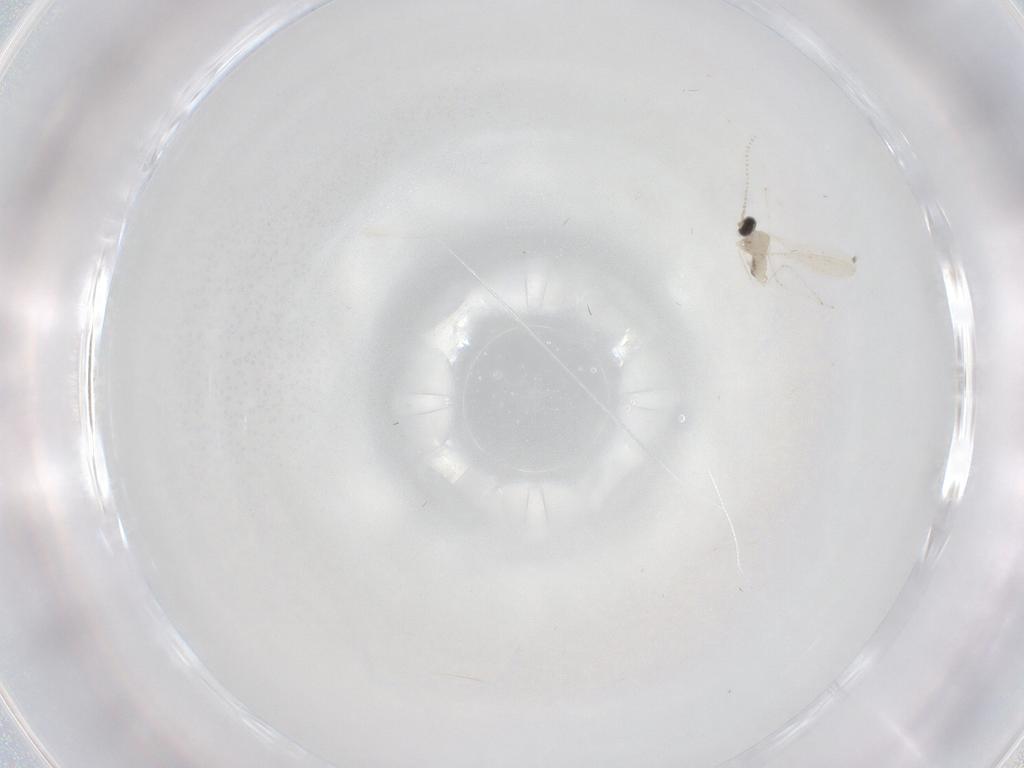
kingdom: Animalia
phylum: Arthropoda
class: Insecta
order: Diptera
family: Cecidomyiidae
